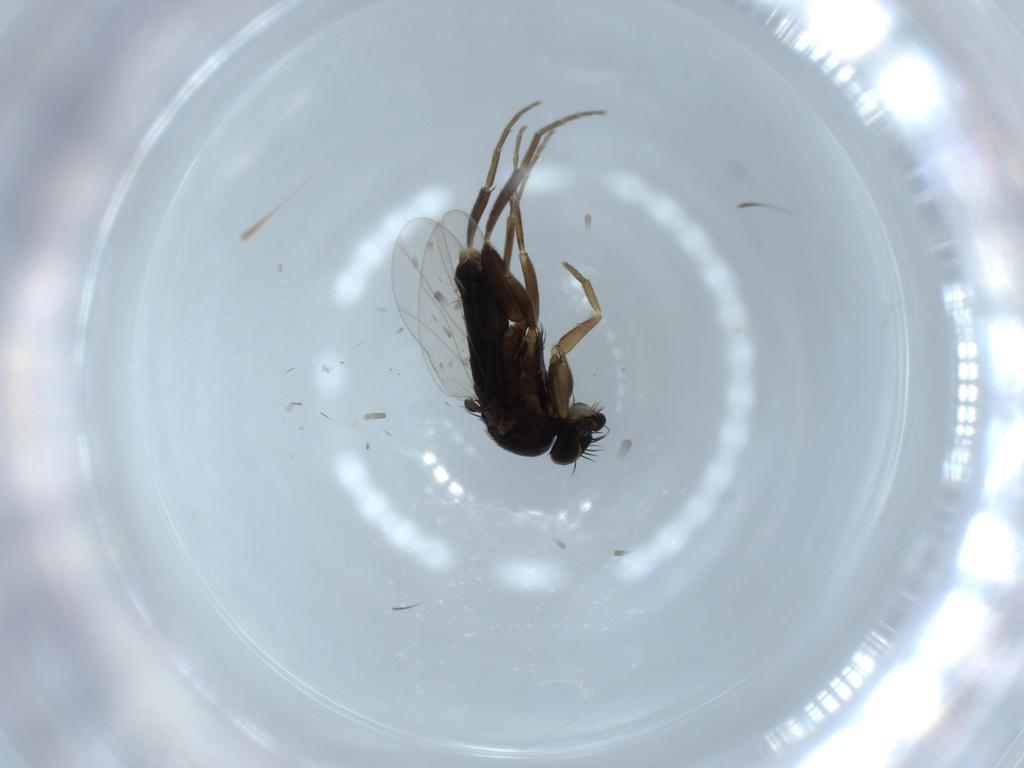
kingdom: Animalia
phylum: Arthropoda
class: Insecta
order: Diptera
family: Phoridae
